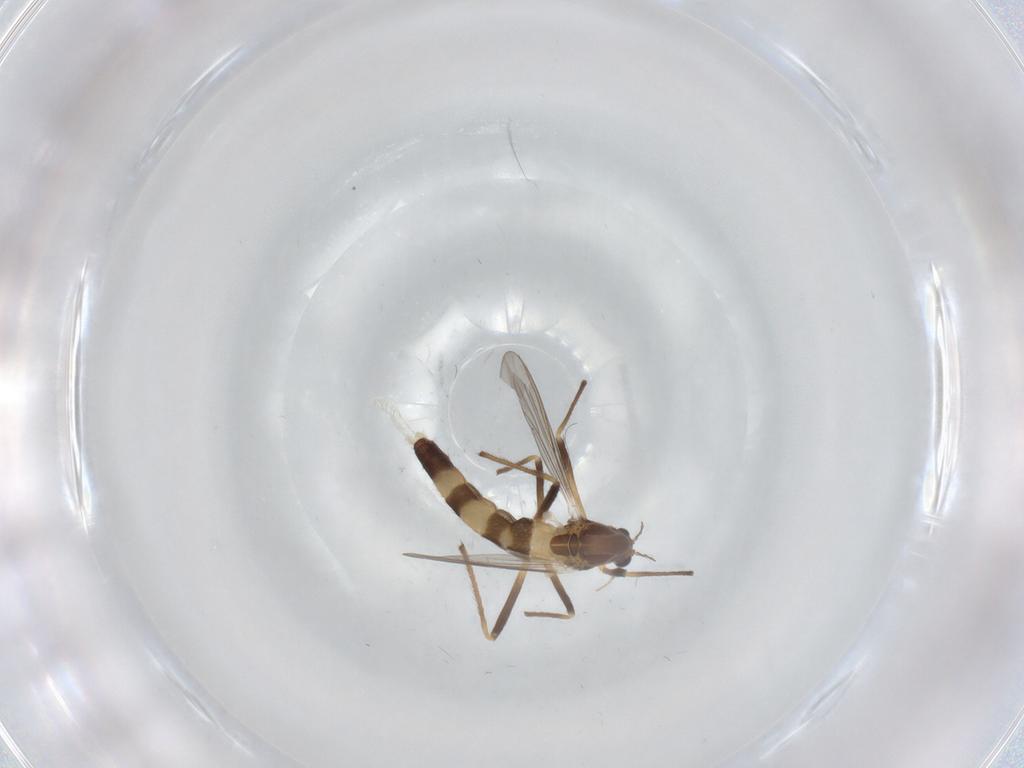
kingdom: Animalia
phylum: Arthropoda
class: Insecta
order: Diptera
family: Chironomidae
